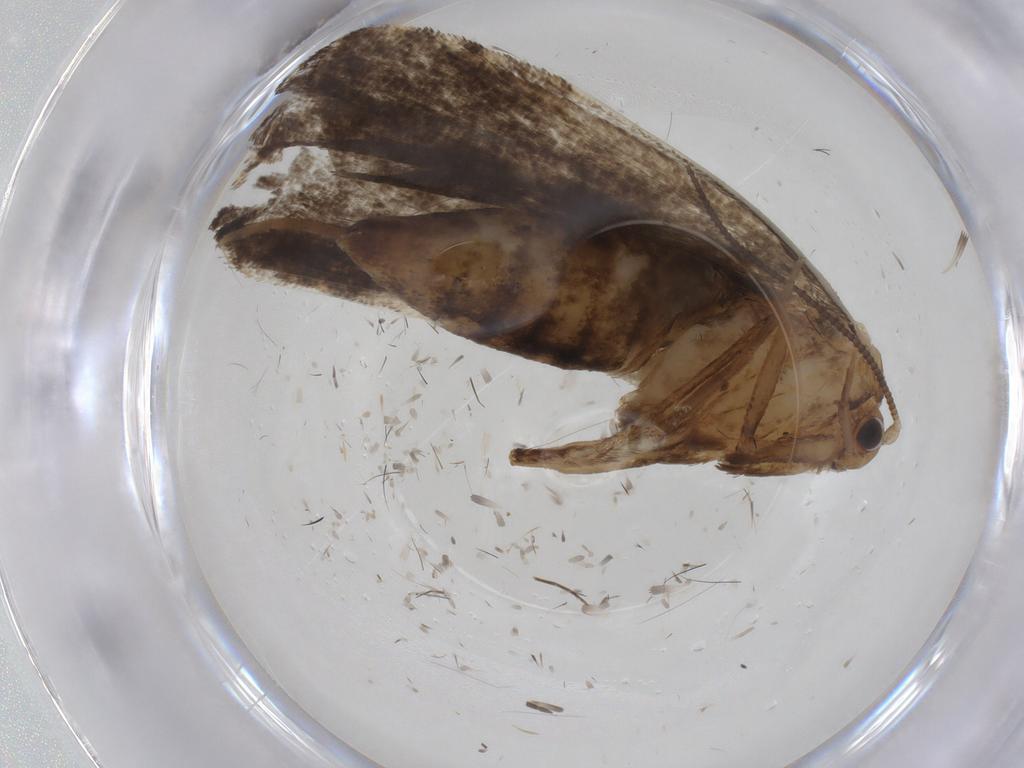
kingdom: Animalia
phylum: Arthropoda
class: Insecta
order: Lepidoptera
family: Tineidae
